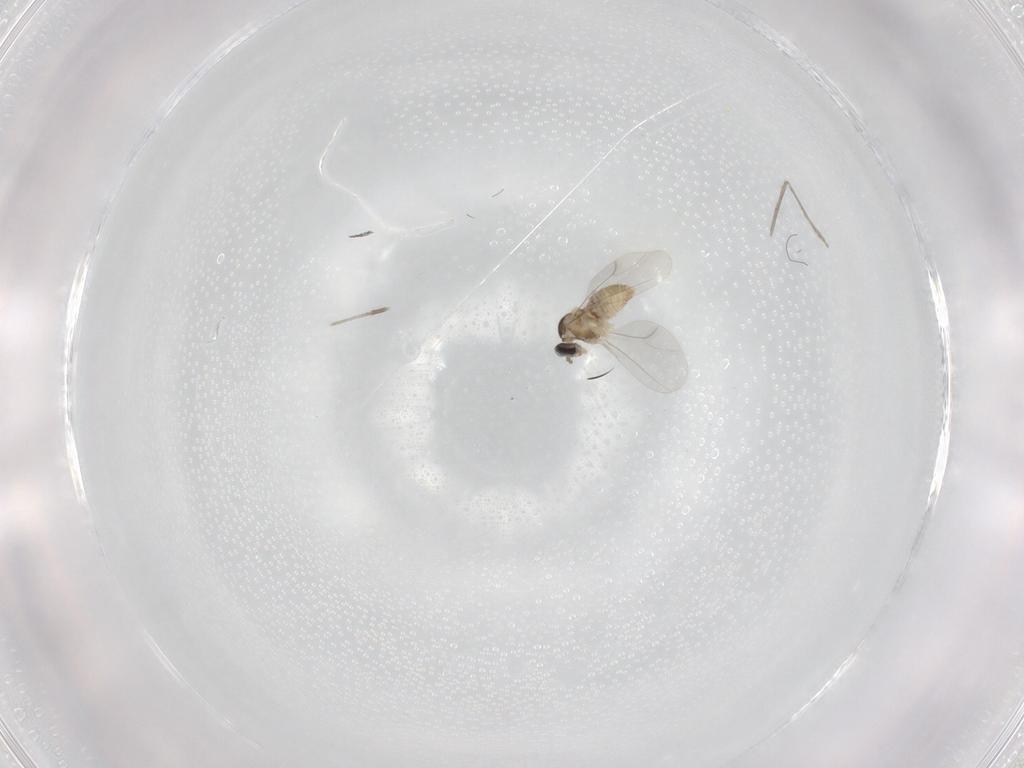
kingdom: Animalia
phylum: Arthropoda
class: Insecta
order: Diptera
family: Cecidomyiidae
